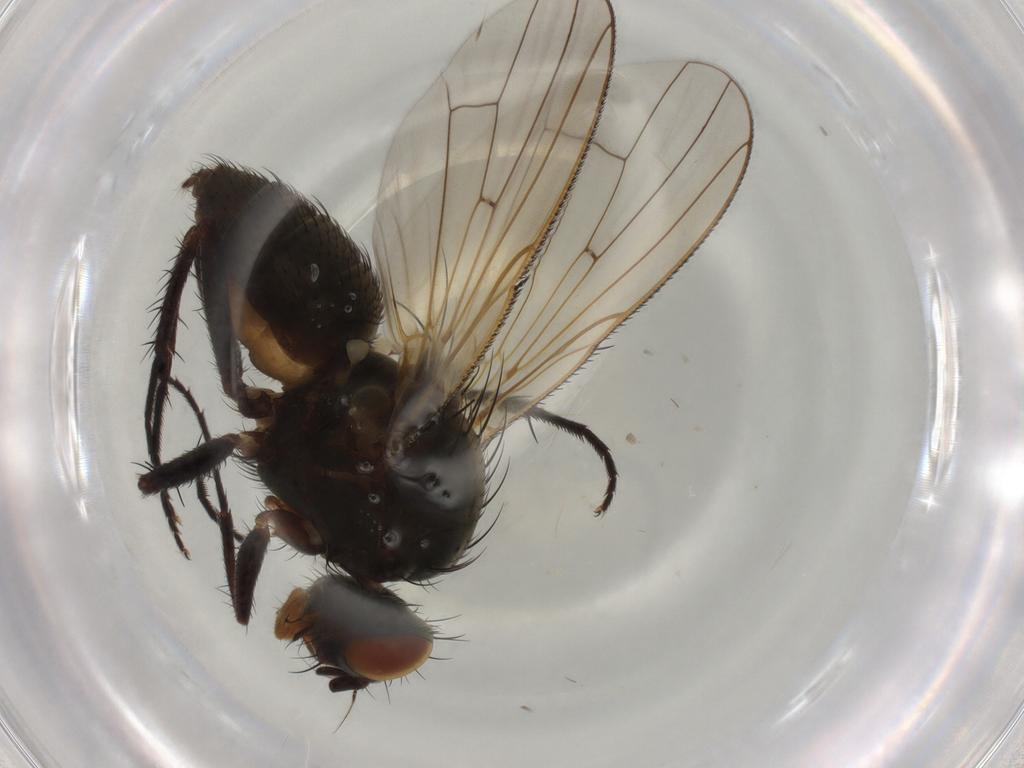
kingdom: Animalia
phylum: Arthropoda
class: Insecta
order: Diptera
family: Anthomyiidae
